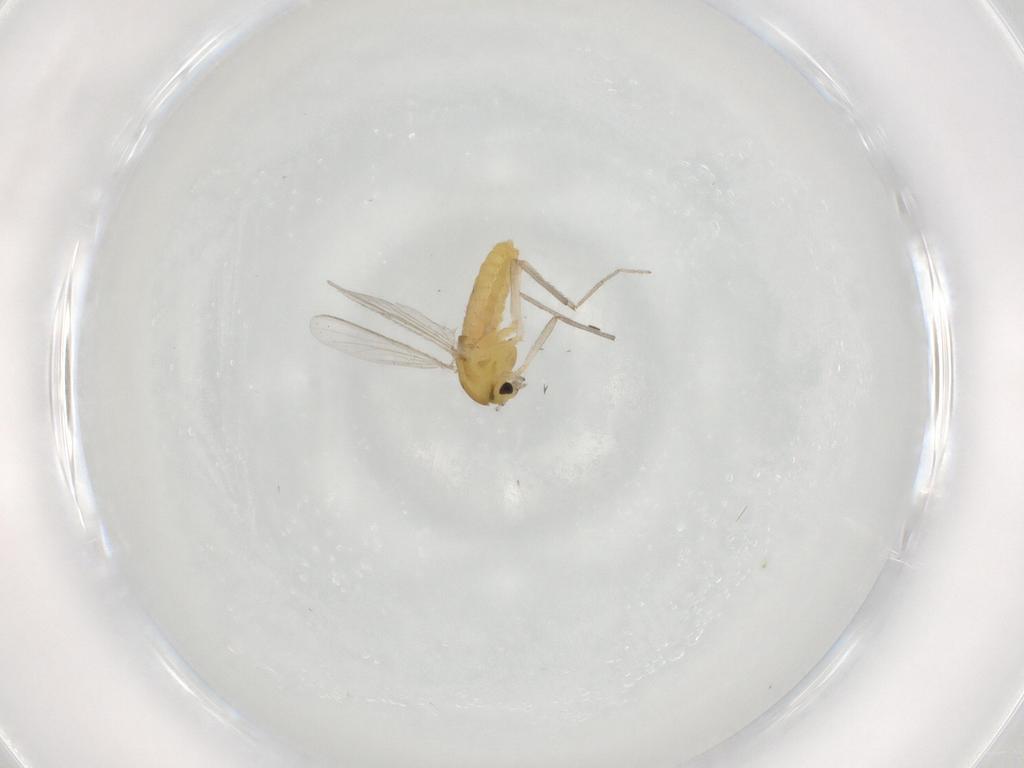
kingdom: Animalia
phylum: Arthropoda
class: Insecta
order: Diptera
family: Chironomidae
